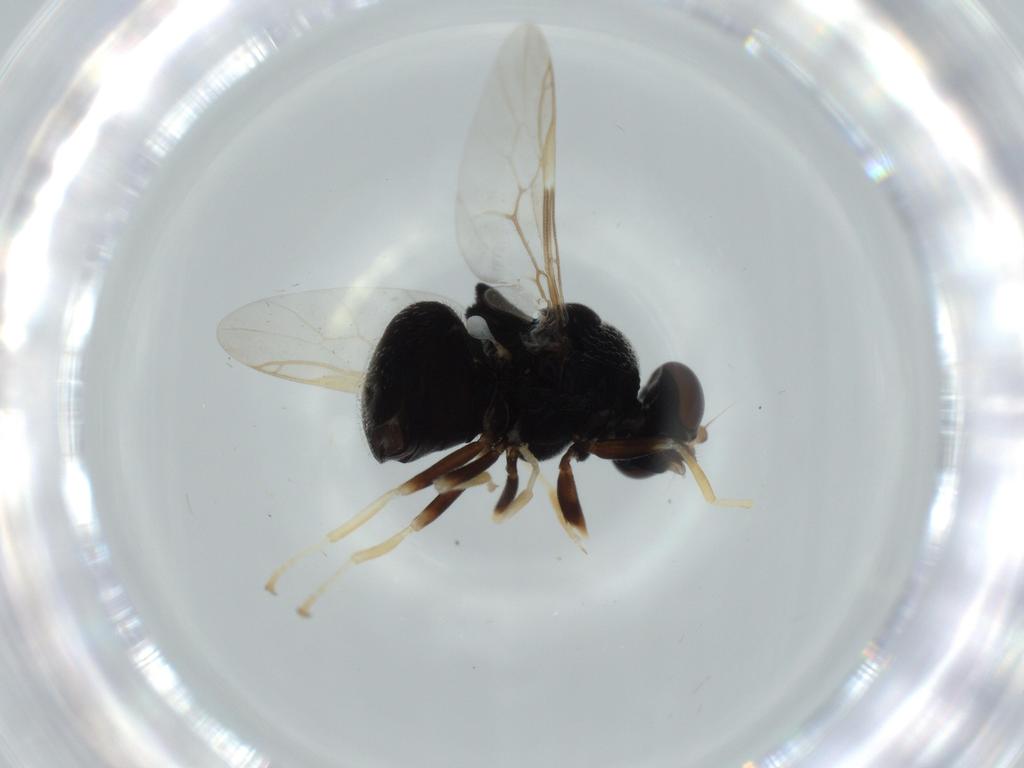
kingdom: Animalia
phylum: Arthropoda
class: Insecta
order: Diptera
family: Stratiomyidae
